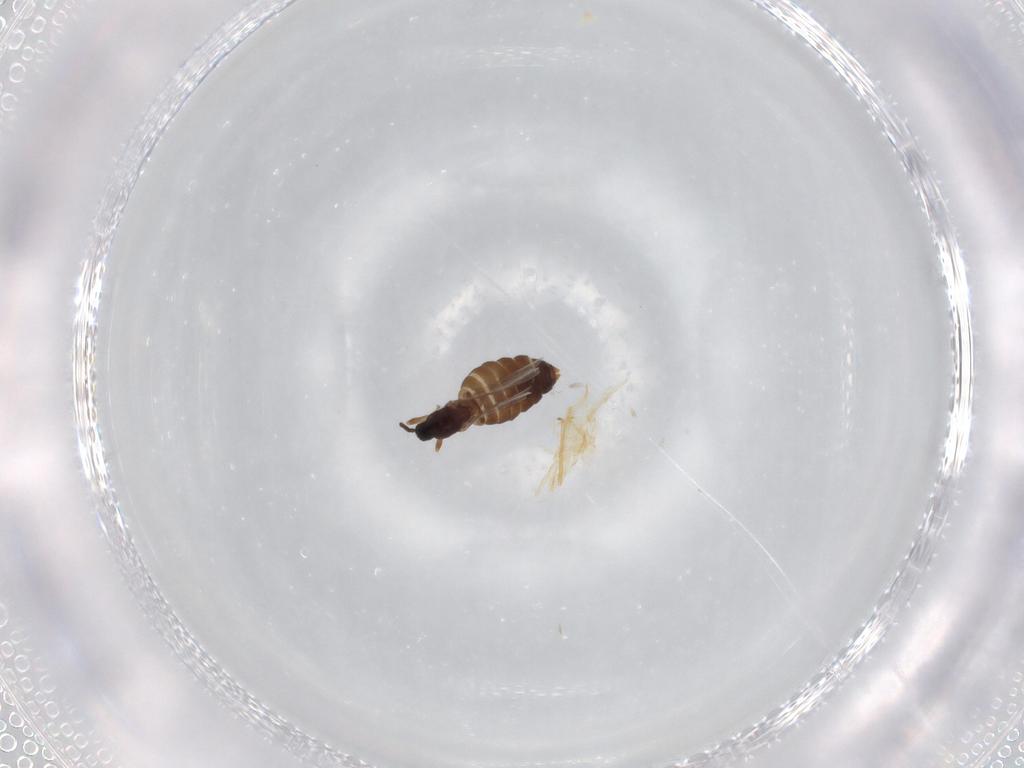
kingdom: Animalia
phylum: Arthropoda
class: Insecta
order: Diptera
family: Scatopsidae
